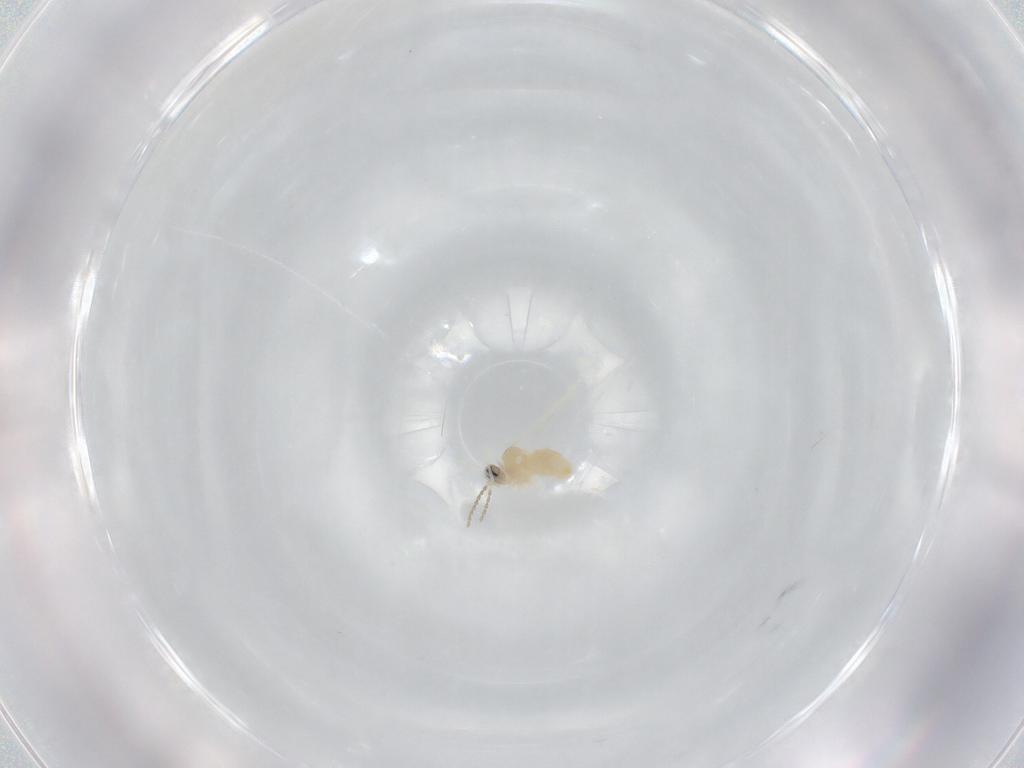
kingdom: Animalia
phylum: Arthropoda
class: Insecta
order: Diptera
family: Cecidomyiidae
